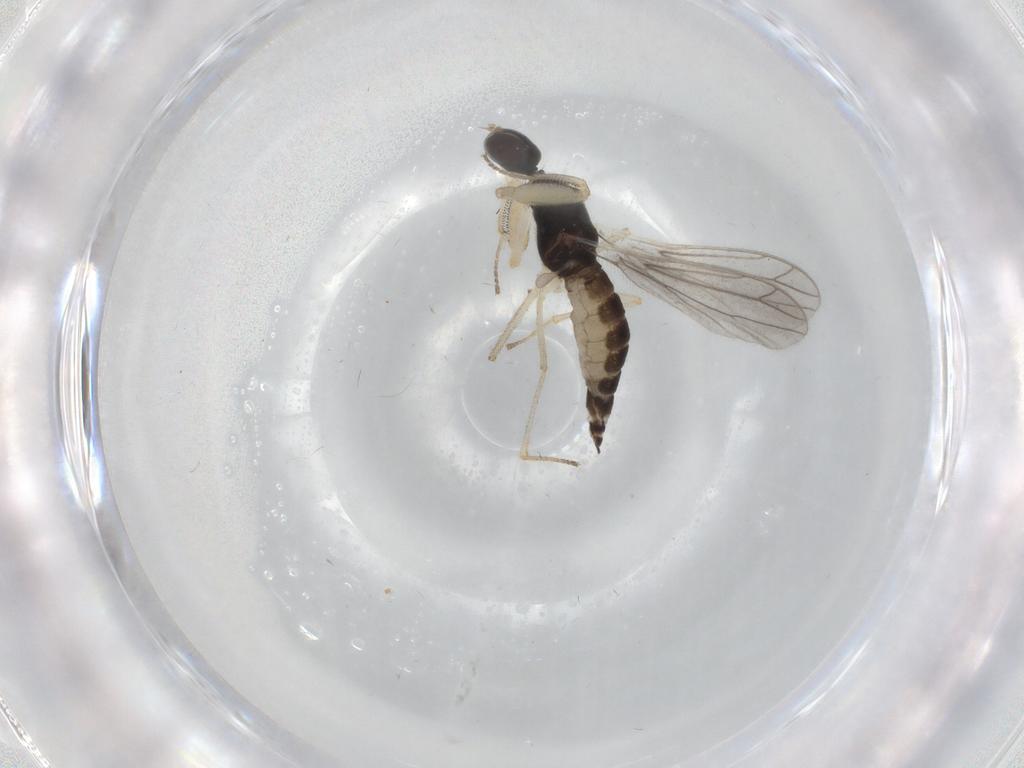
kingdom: Animalia
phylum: Arthropoda
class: Insecta
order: Diptera
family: Empididae
